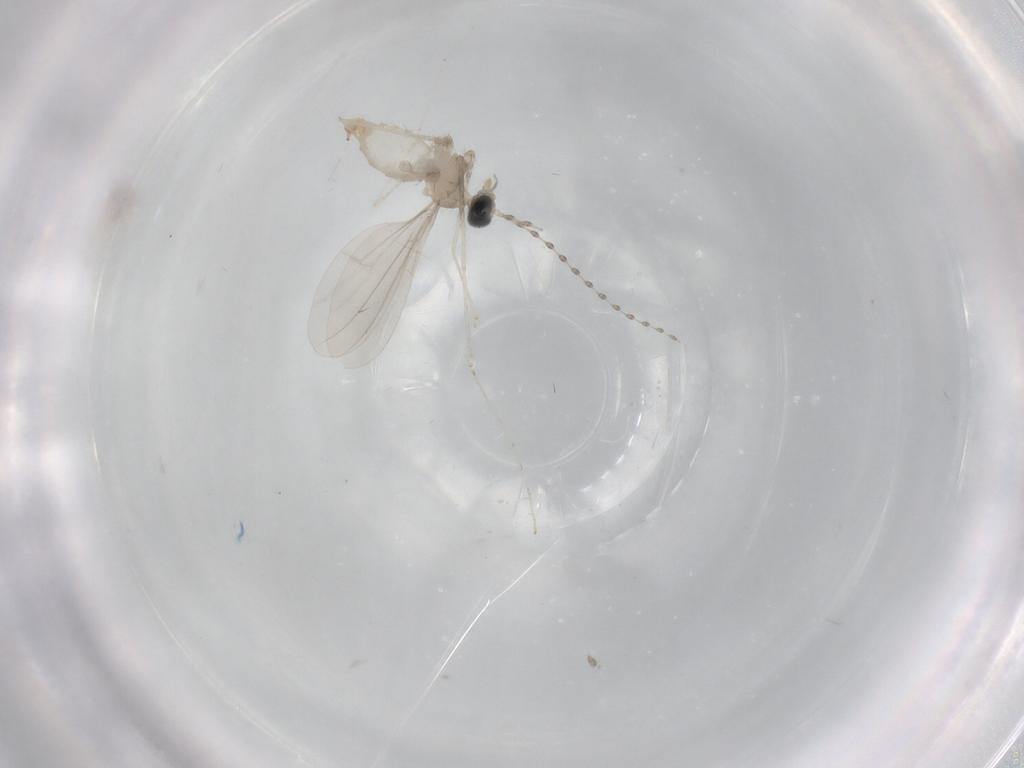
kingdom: Animalia
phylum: Arthropoda
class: Insecta
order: Diptera
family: Cecidomyiidae
